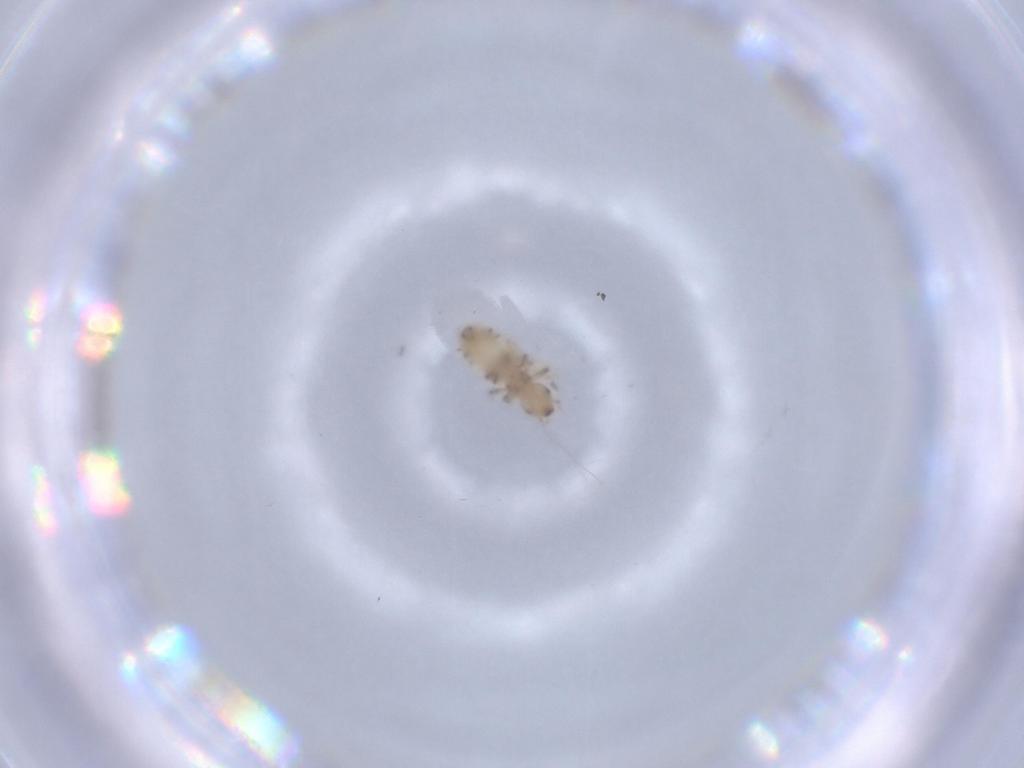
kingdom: Animalia
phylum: Arthropoda
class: Insecta
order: Psocodea
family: Liposcelididae
